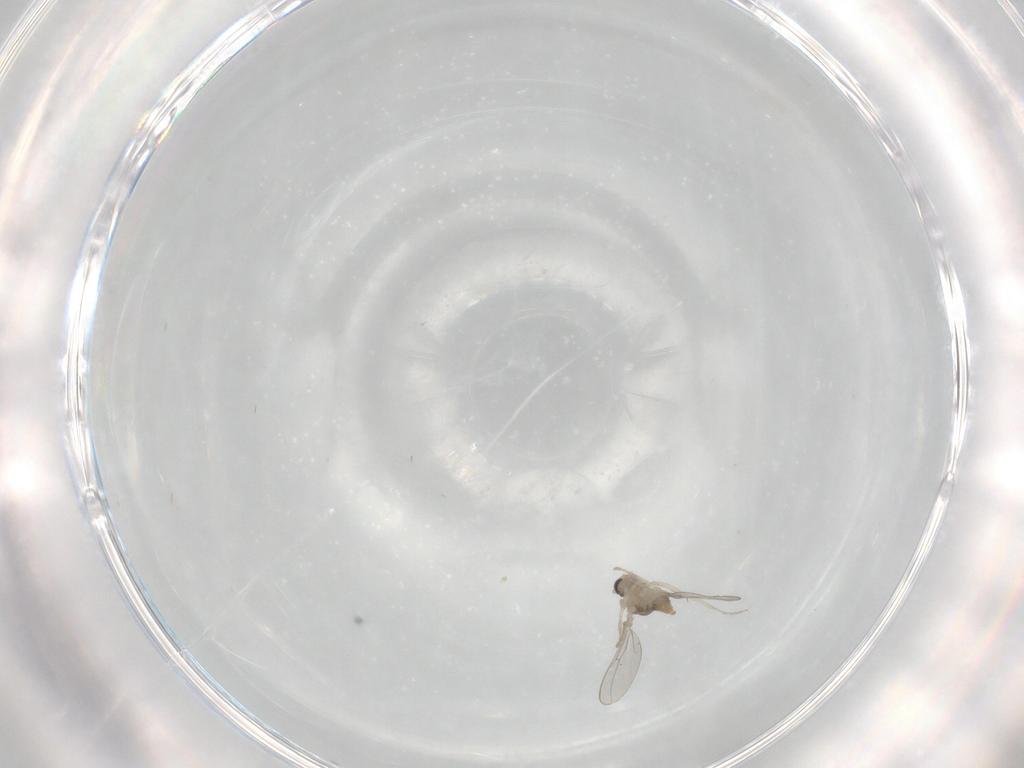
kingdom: Animalia
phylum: Arthropoda
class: Insecta
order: Diptera
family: Cecidomyiidae
